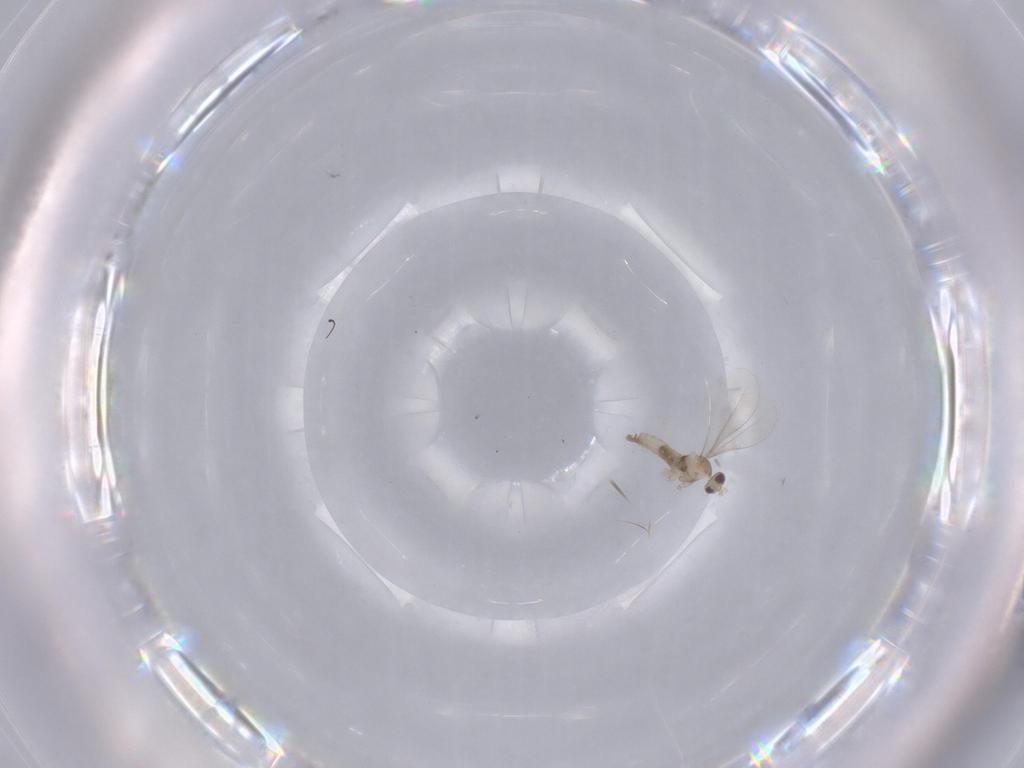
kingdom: Animalia
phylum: Arthropoda
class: Insecta
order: Diptera
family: Cecidomyiidae
